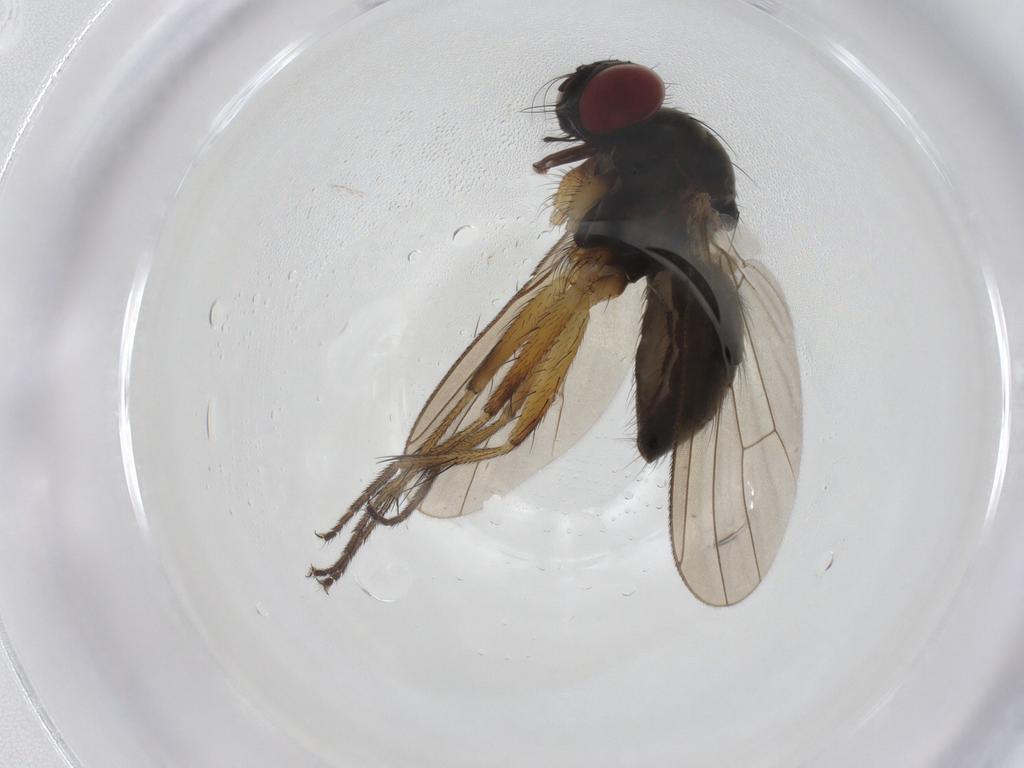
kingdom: Animalia
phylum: Arthropoda
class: Insecta
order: Diptera
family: Muscidae
